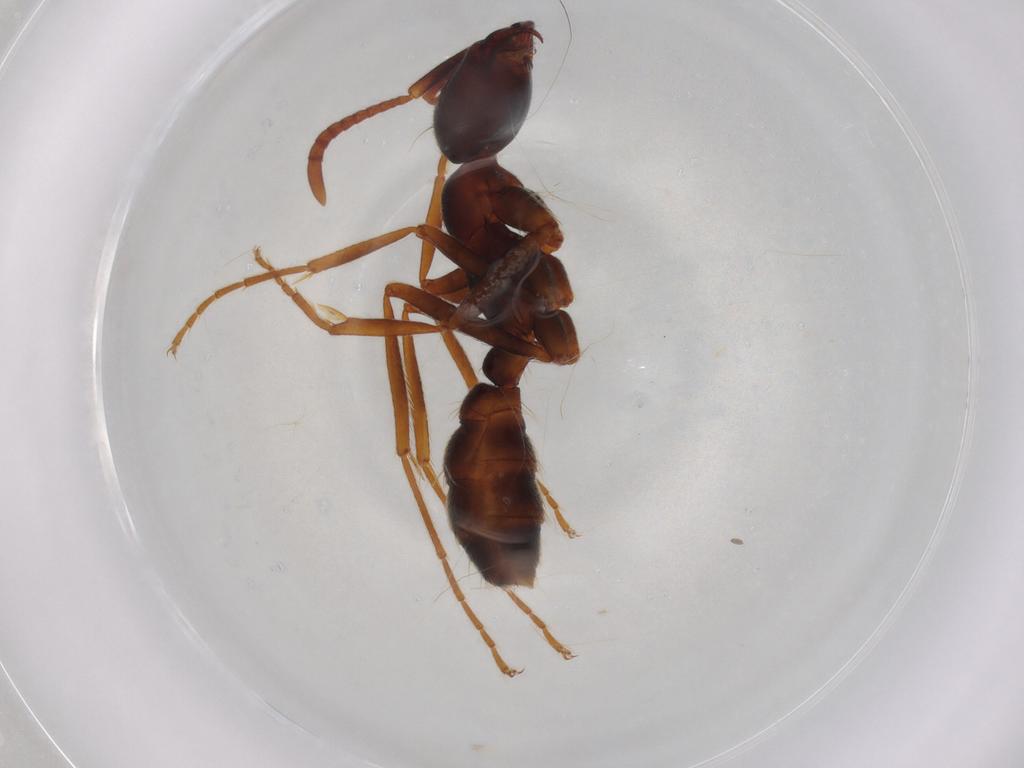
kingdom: Animalia
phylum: Arthropoda
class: Insecta
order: Hymenoptera
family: Formicidae
